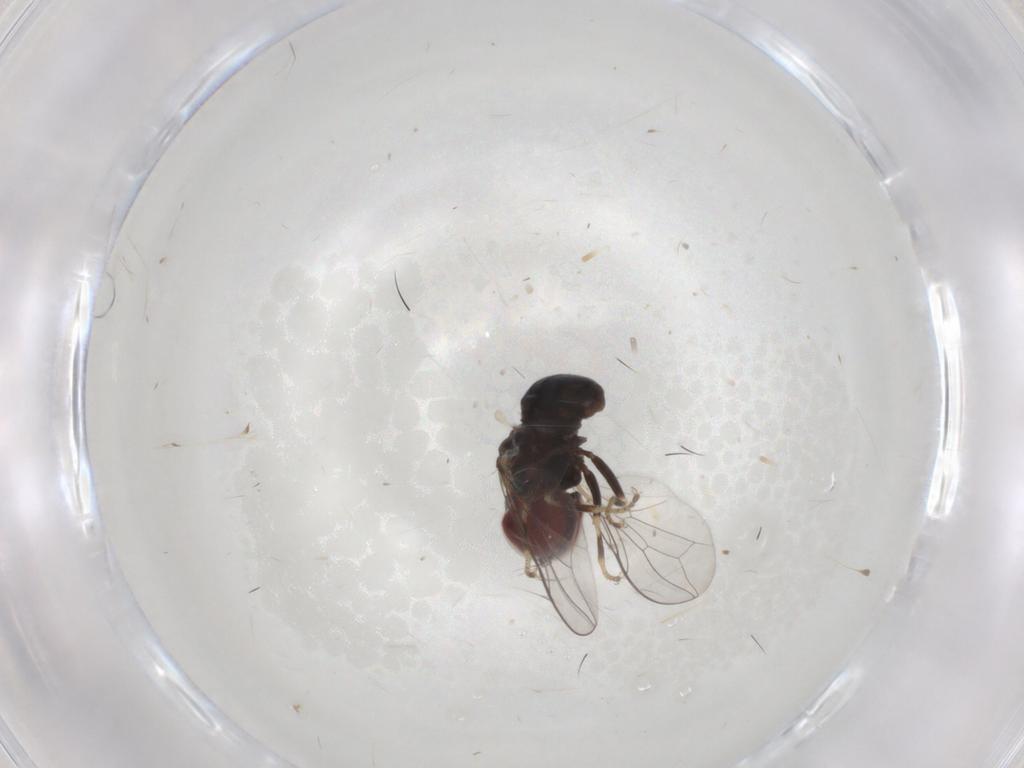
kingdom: Animalia
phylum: Arthropoda
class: Insecta
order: Diptera
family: Pipunculidae
